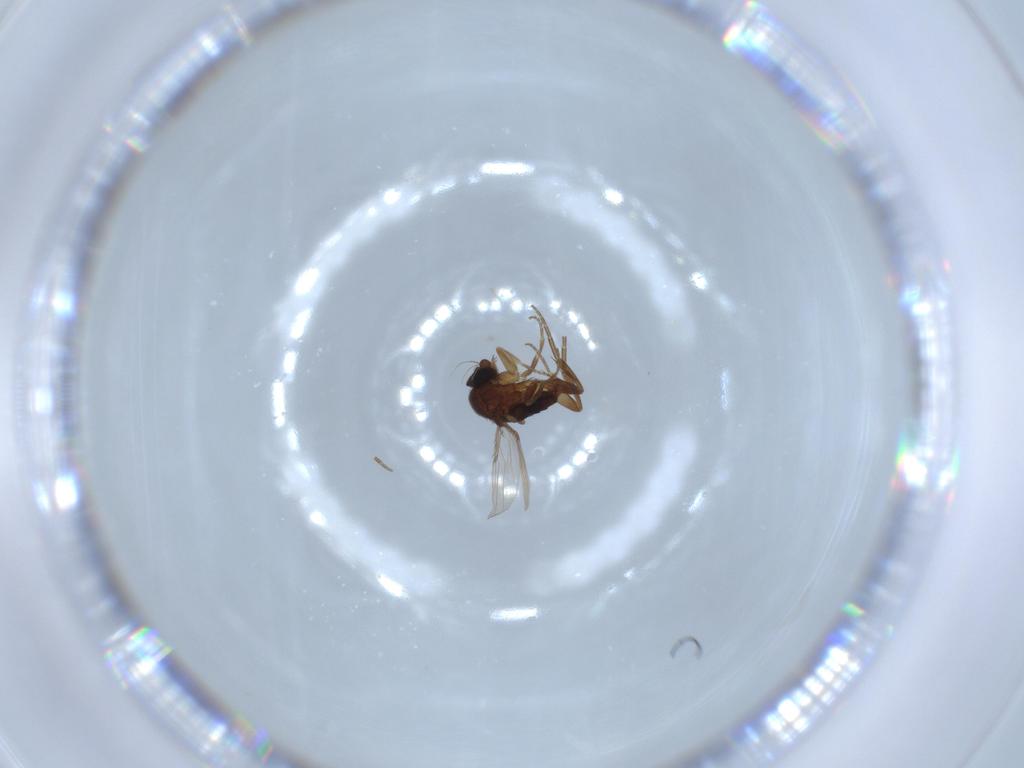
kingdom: Animalia
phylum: Arthropoda
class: Insecta
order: Diptera
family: Phoridae
